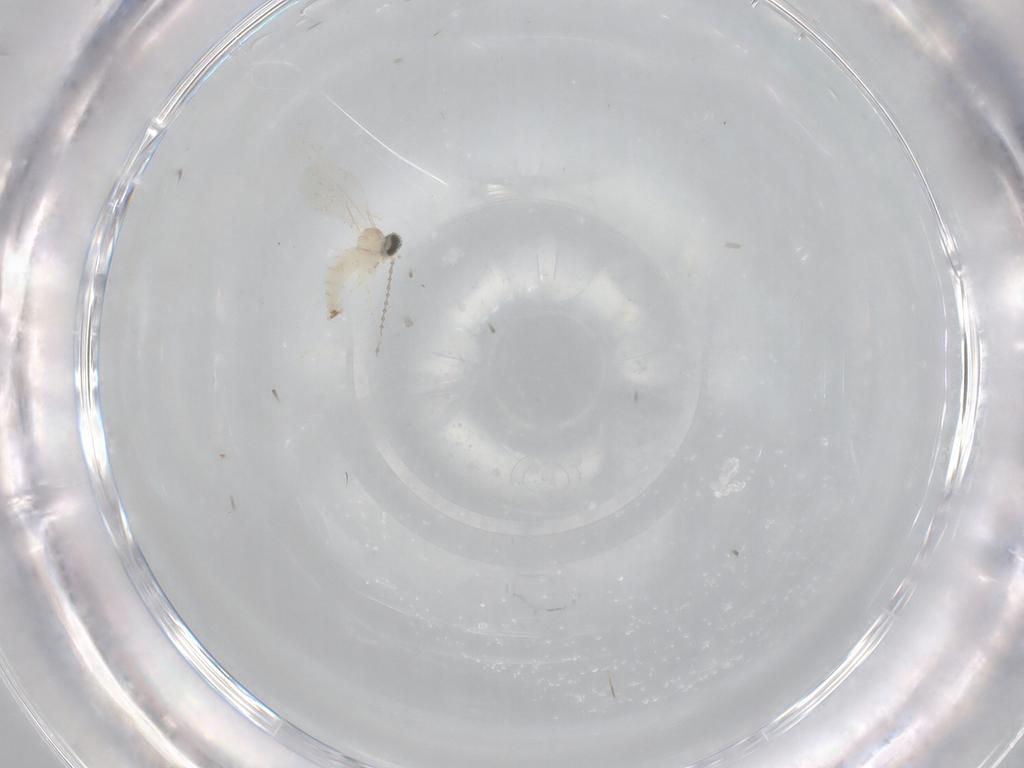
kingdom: Animalia
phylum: Arthropoda
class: Insecta
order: Diptera
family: Cecidomyiidae
